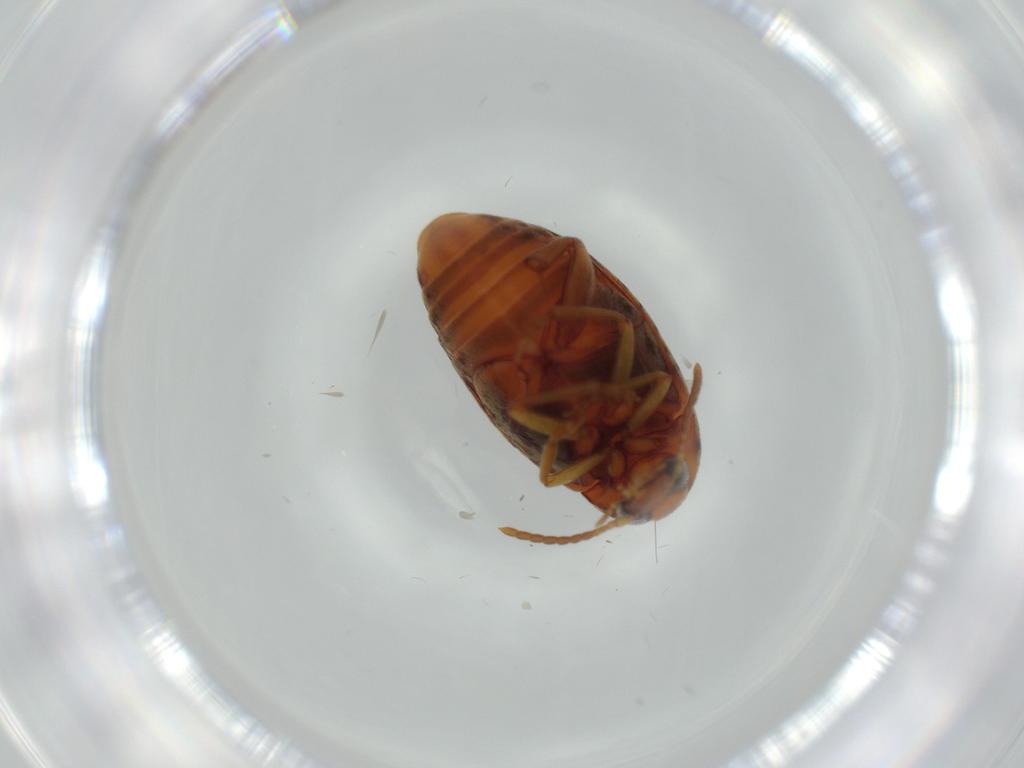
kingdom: Animalia
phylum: Arthropoda
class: Insecta
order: Coleoptera
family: Chrysomelidae
